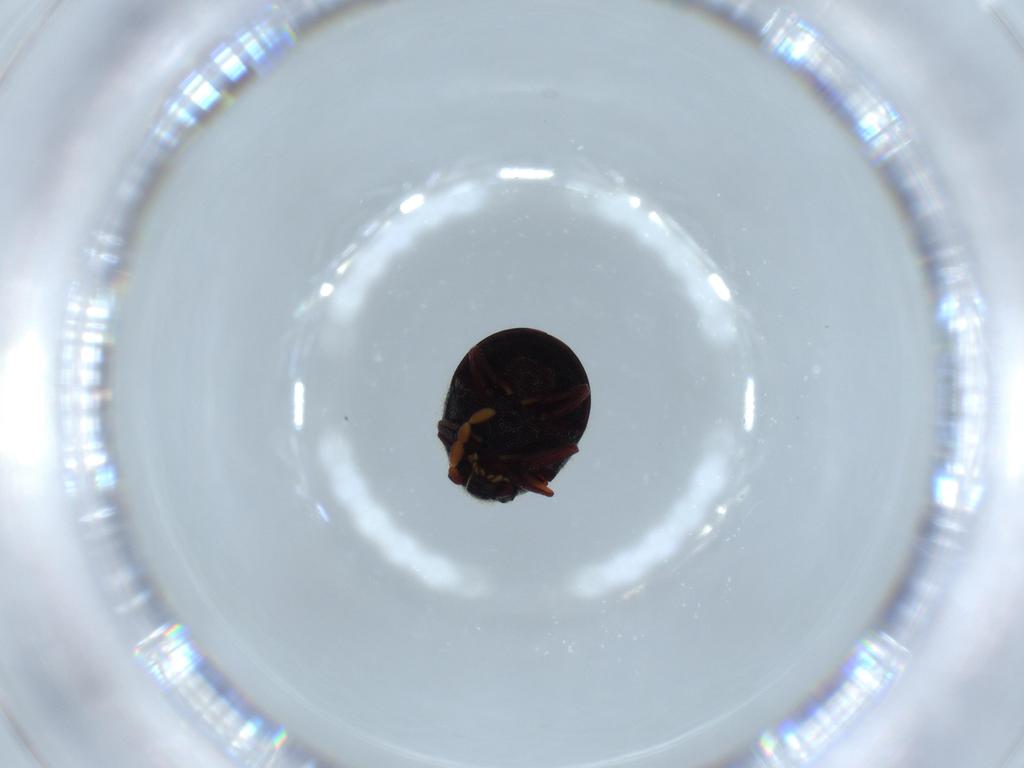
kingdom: Animalia
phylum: Arthropoda
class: Insecta
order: Coleoptera
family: Ptinidae
